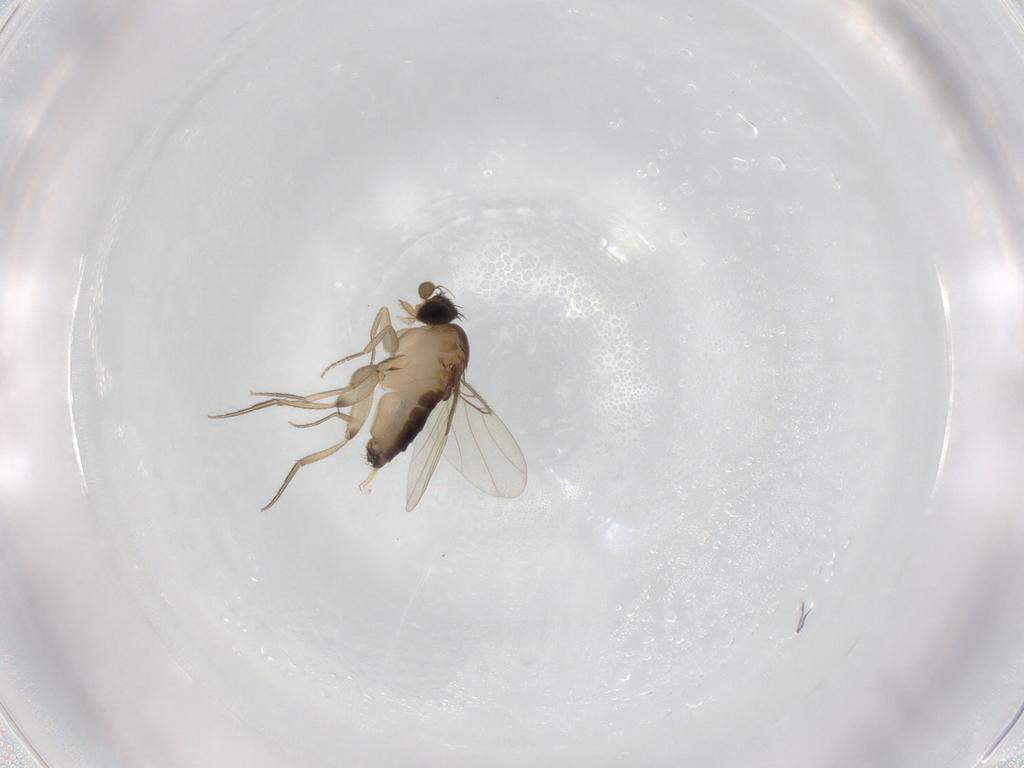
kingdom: Animalia
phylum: Arthropoda
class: Insecta
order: Diptera
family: Phoridae
